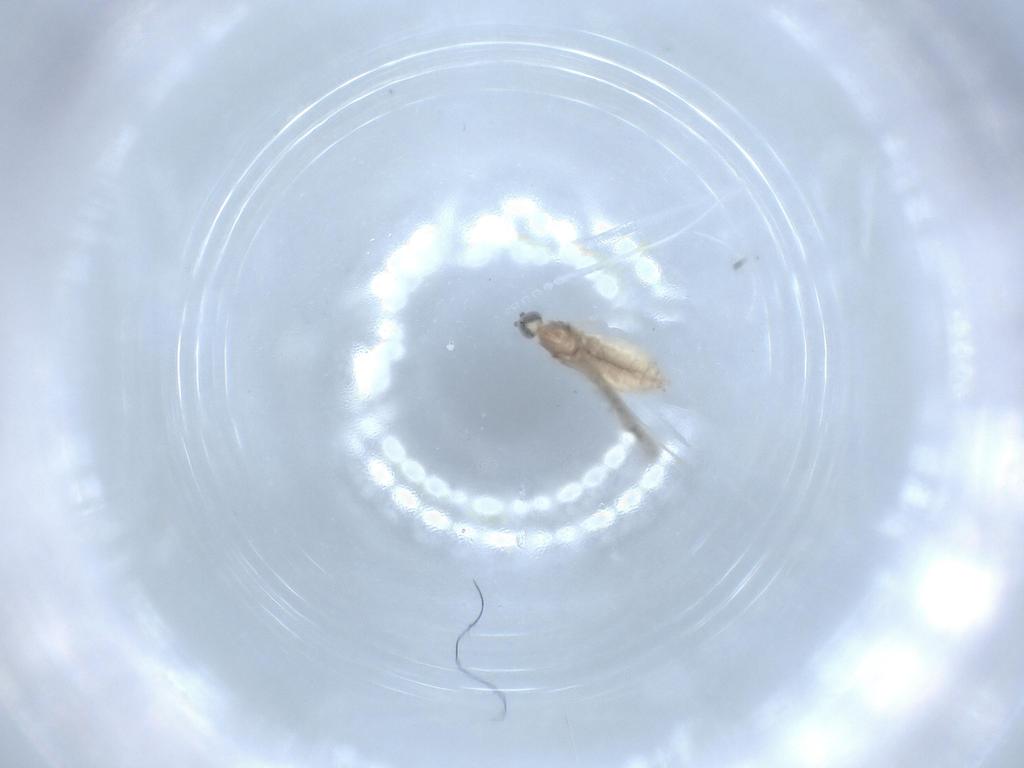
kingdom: Animalia
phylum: Arthropoda
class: Insecta
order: Diptera
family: Cecidomyiidae
